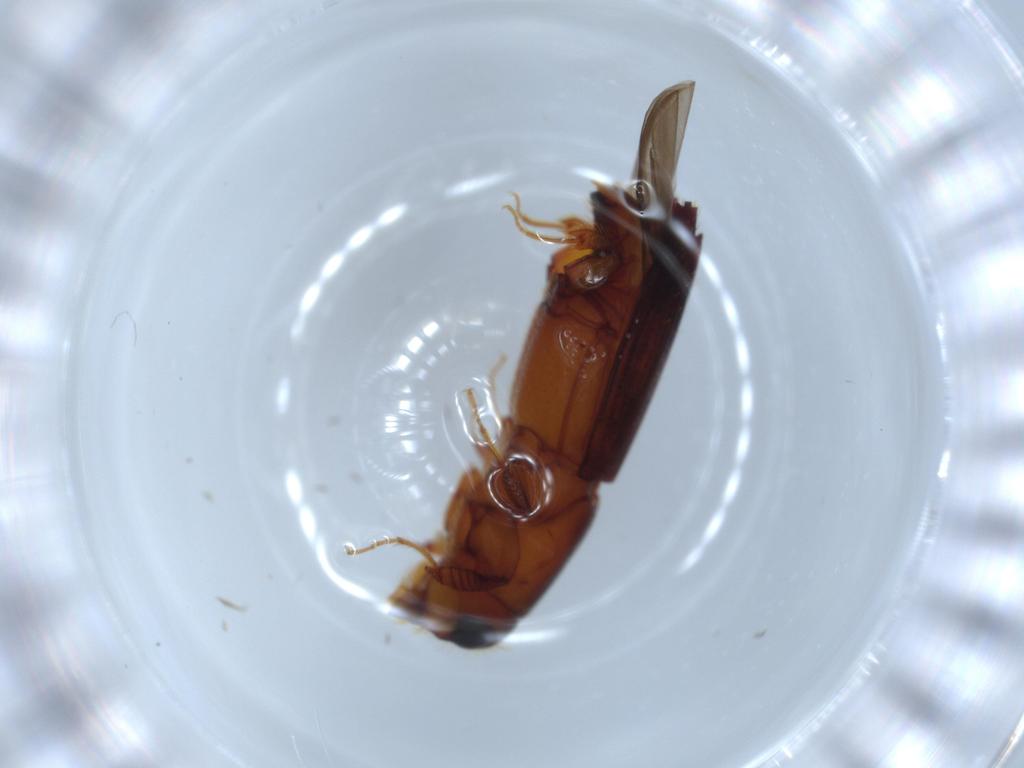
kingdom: Animalia
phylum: Arthropoda
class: Insecta
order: Coleoptera
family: Curculionidae
